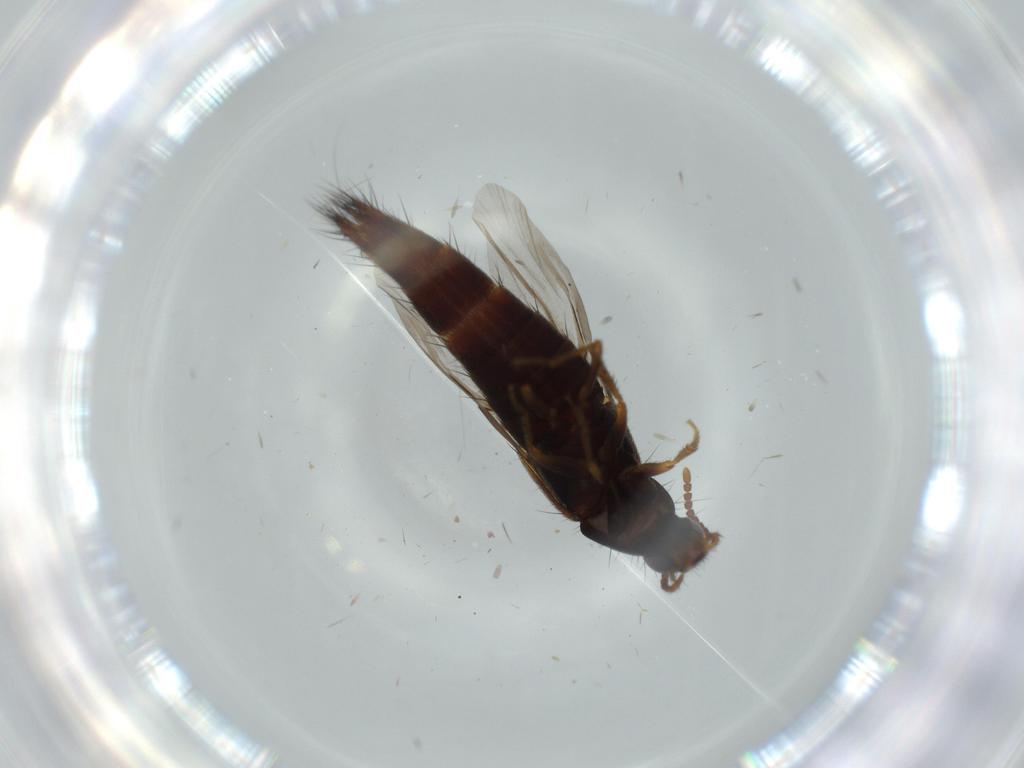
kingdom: Animalia
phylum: Arthropoda
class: Insecta
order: Coleoptera
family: Staphylinidae
